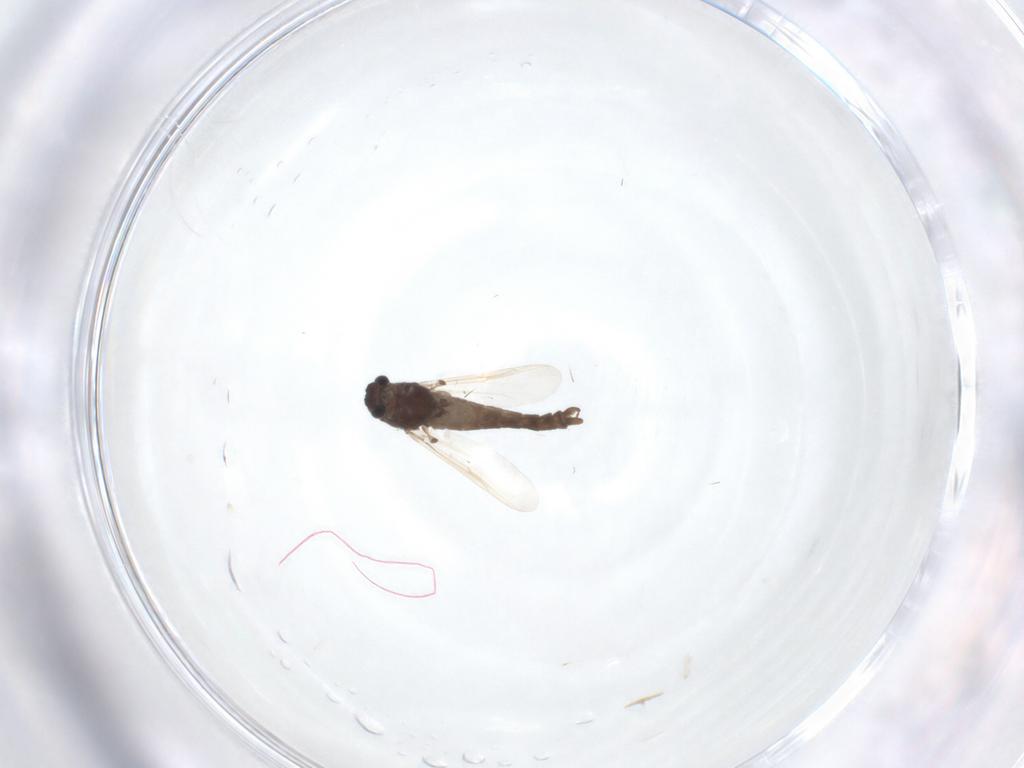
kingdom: Animalia
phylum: Arthropoda
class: Insecta
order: Diptera
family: Chironomidae
